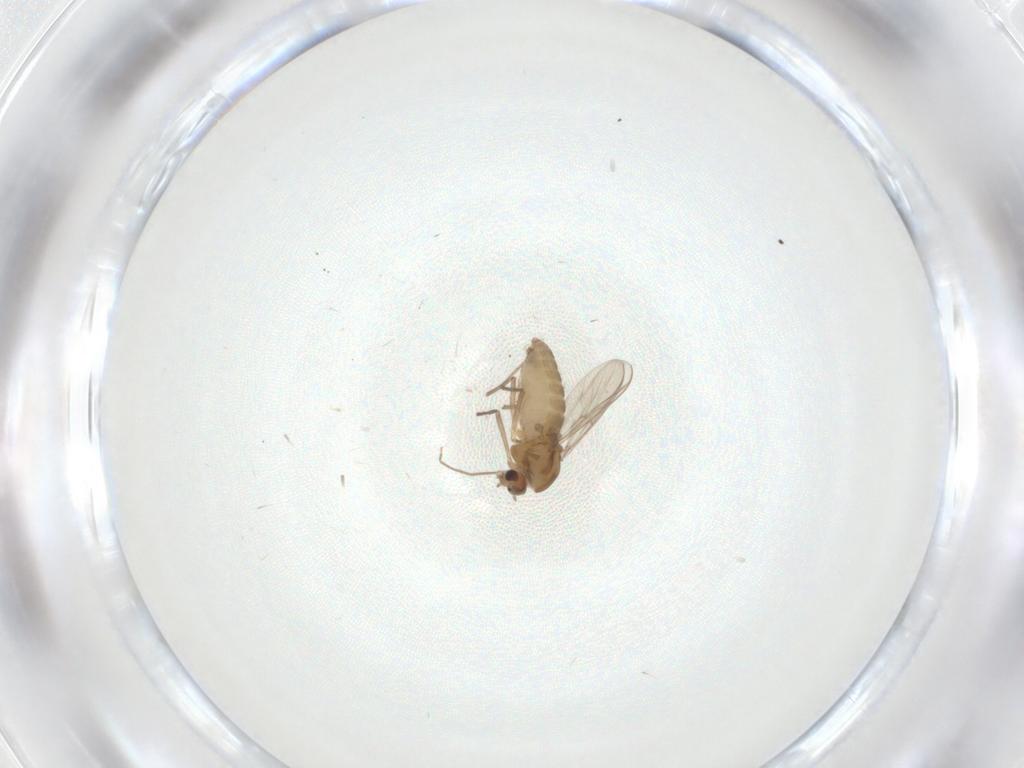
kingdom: Animalia
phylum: Arthropoda
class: Insecta
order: Diptera
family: Chironomidae
